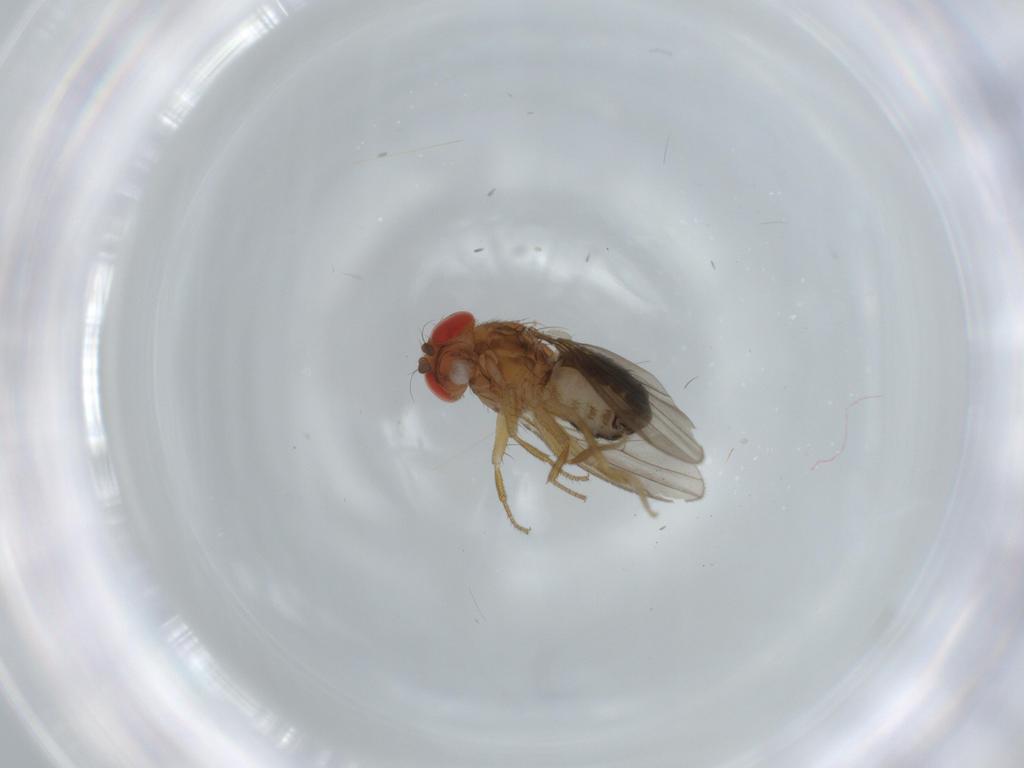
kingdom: Animalia
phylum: Arthropoda
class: Insecta
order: Diptera
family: Drosophilidae
